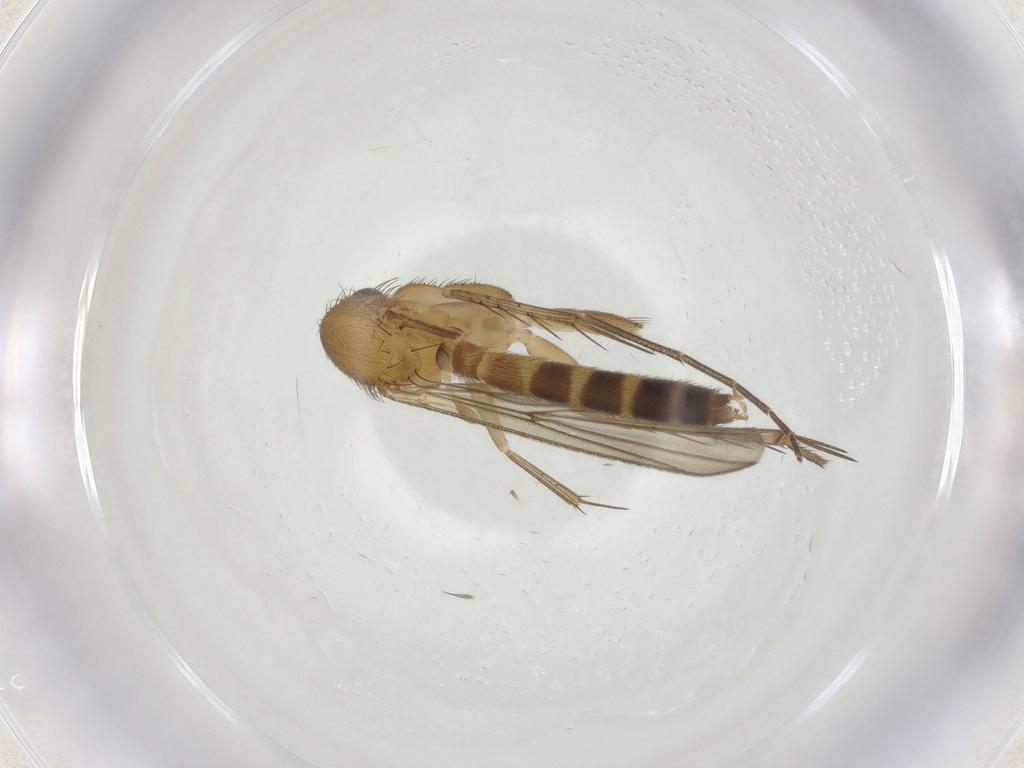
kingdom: Animalia
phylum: Arthropoda
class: Insecta
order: Diptera
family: Mycetophilidae
